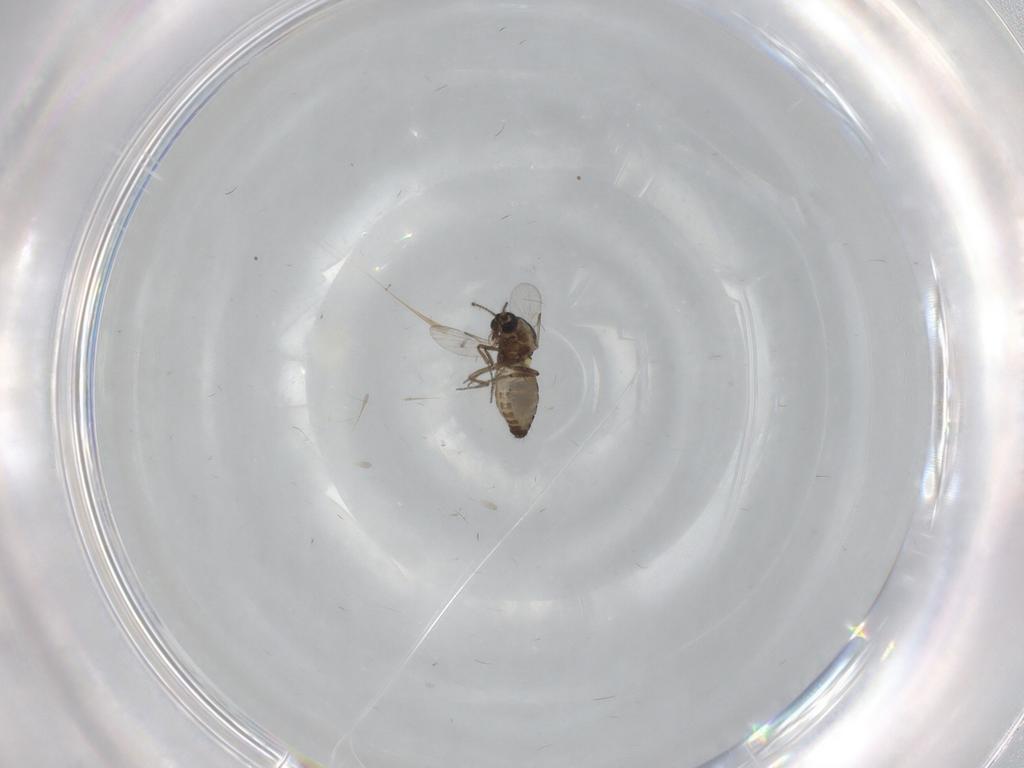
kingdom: Animalia
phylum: Arthropoda
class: Insecta
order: Diptera
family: Ceratopogonidae
